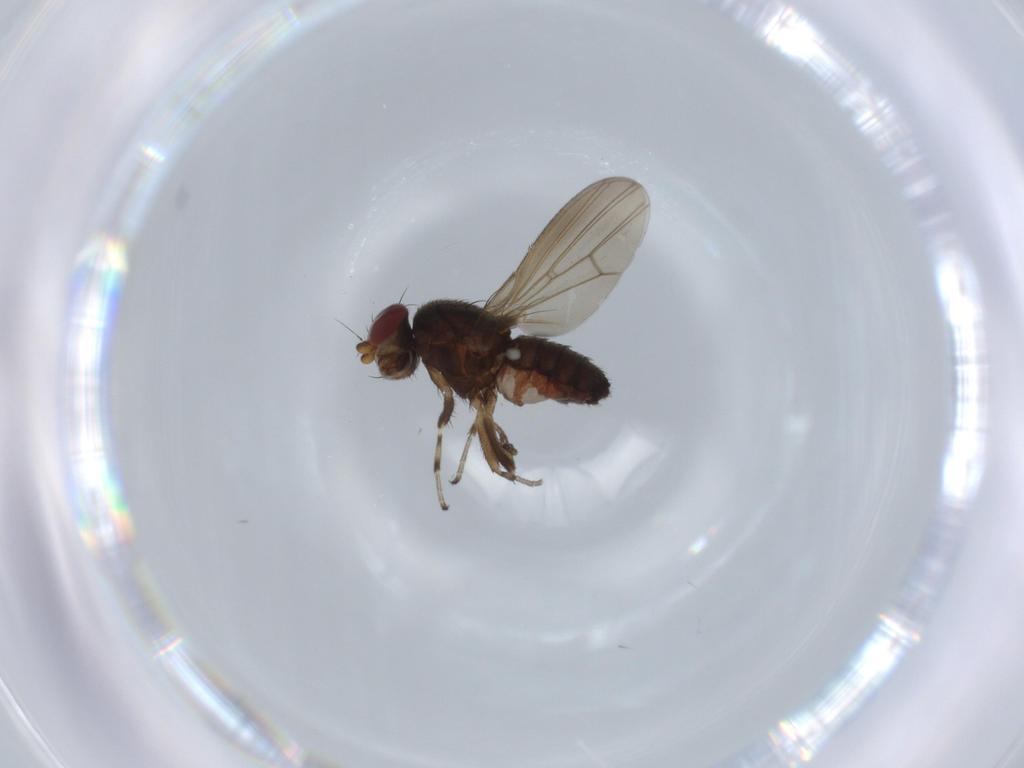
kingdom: Animalia
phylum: Arthropoda
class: Insecta
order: Diptera
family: Heleomyzidae
